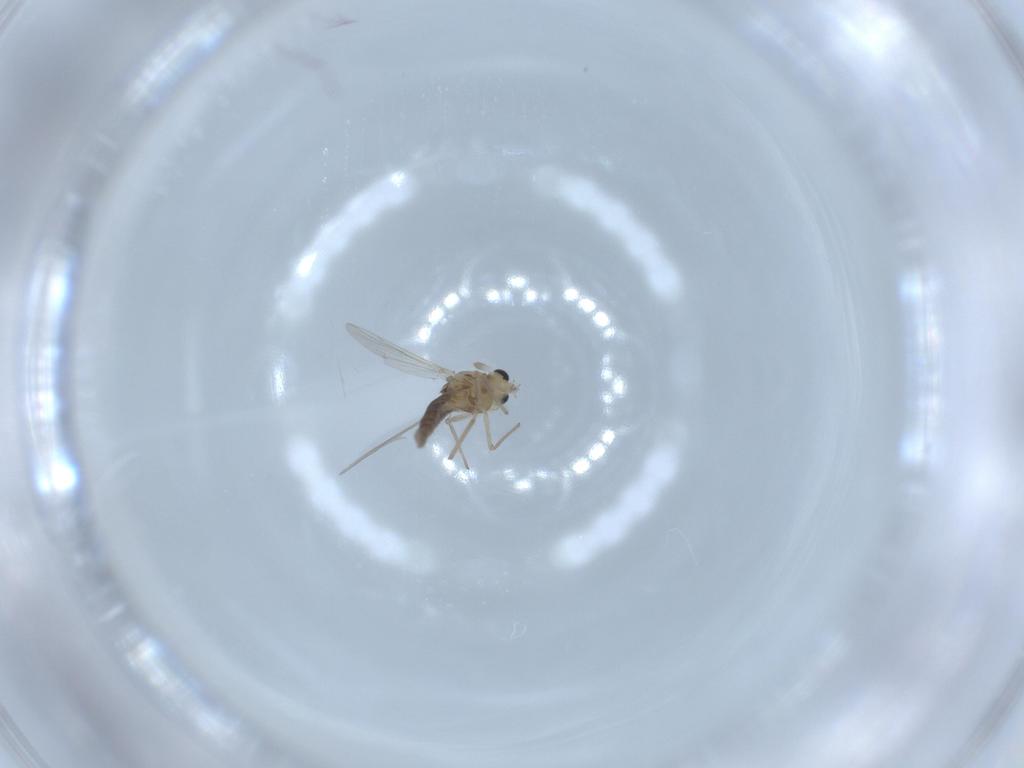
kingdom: Animalia
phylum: Arthropoda
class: Insecta
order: Diptera
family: Chironomidae
